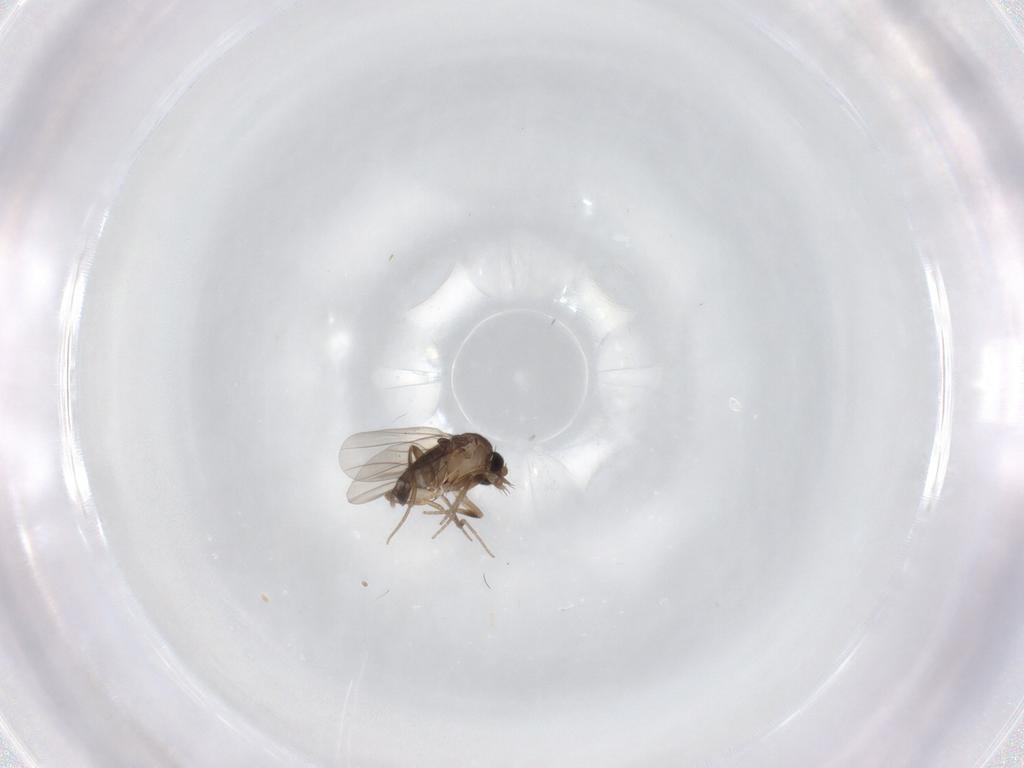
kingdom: Animalia
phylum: Arthropoda
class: Insecta
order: Diptera
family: Phoridae
